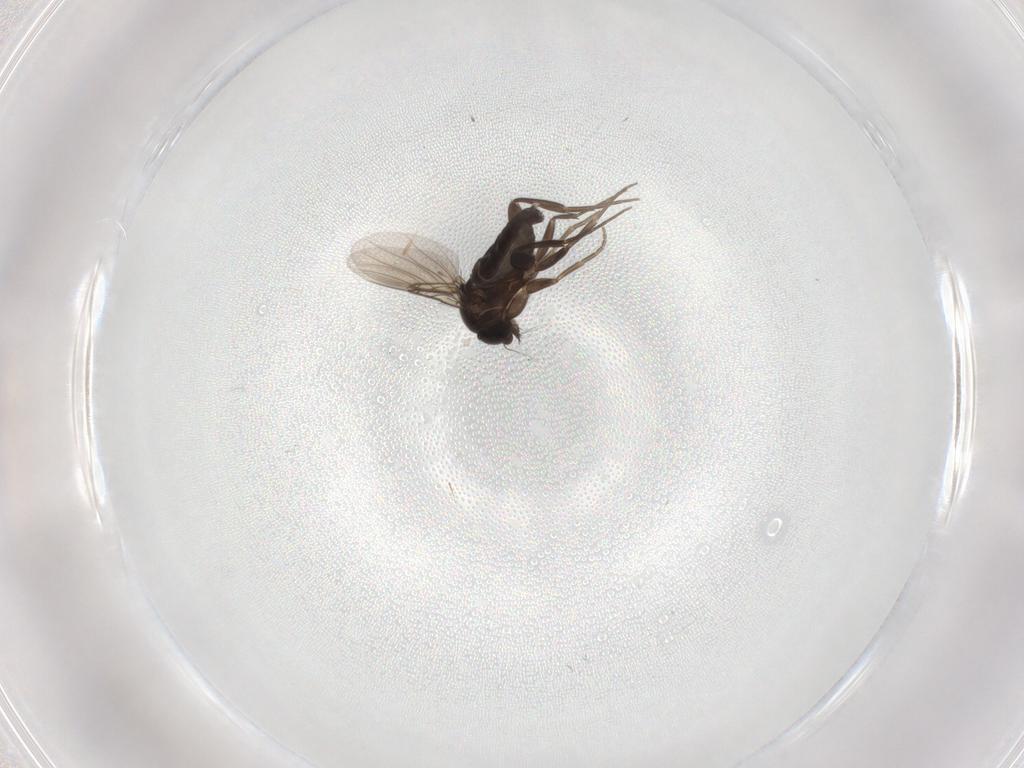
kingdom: Animalia
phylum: Arthropoda
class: Insecta
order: Diptera
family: Phoridae
